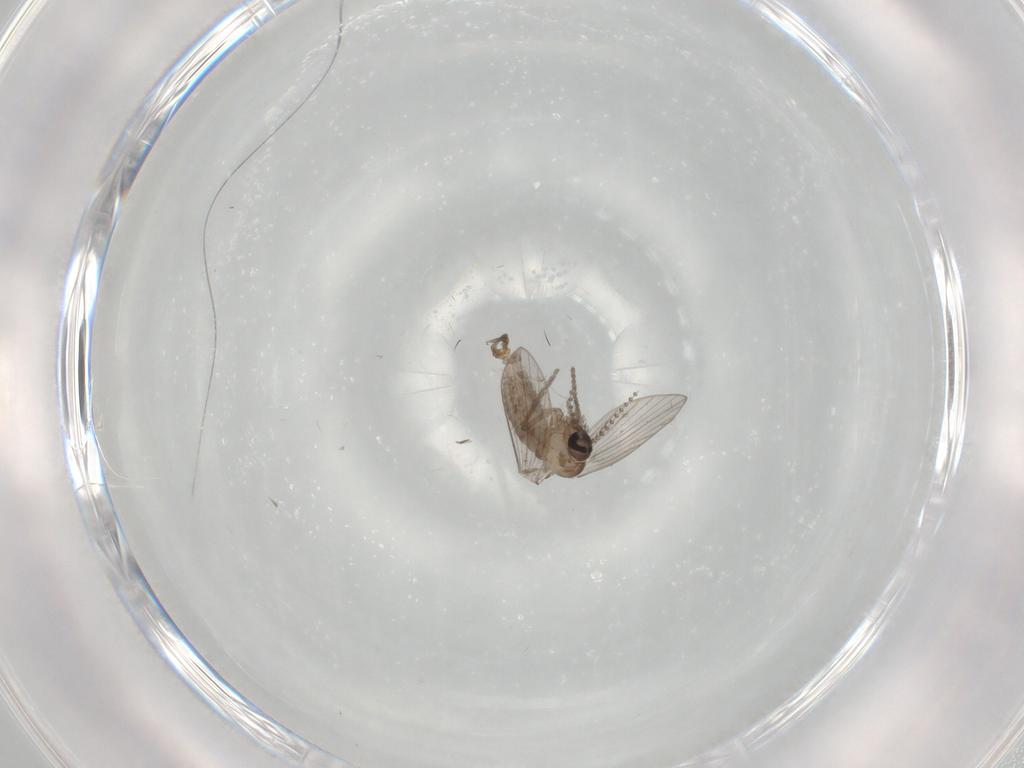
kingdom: Animalia
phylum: Arthropoda
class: Insecta
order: Diptera
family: Psychodidae
